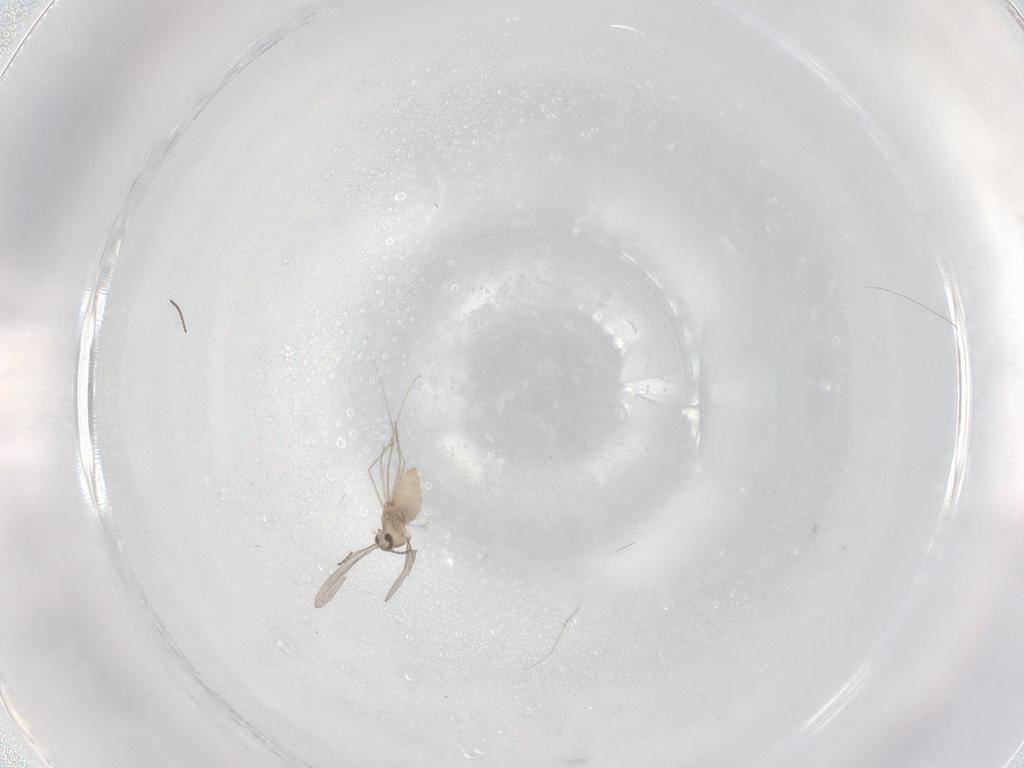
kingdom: Animalia
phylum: Arthropoda
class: Insecta
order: Diptera
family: Cecidomyiidae
